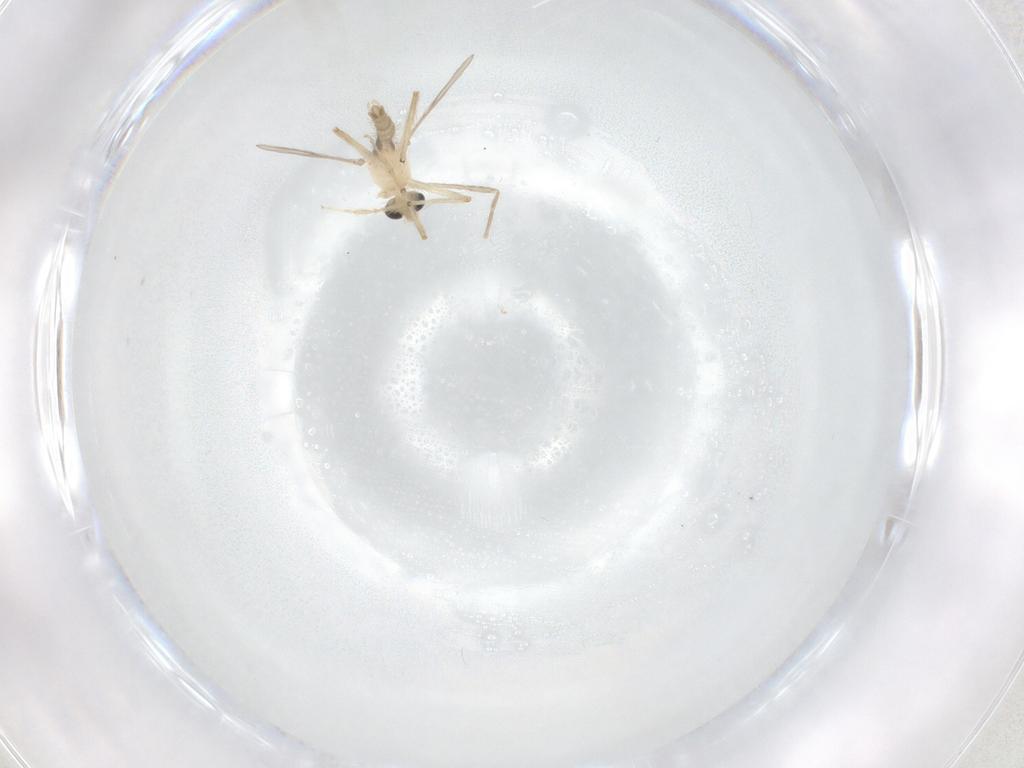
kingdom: Animalia
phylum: Arthropoda
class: Insecta
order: Diptera
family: Chironomidae
